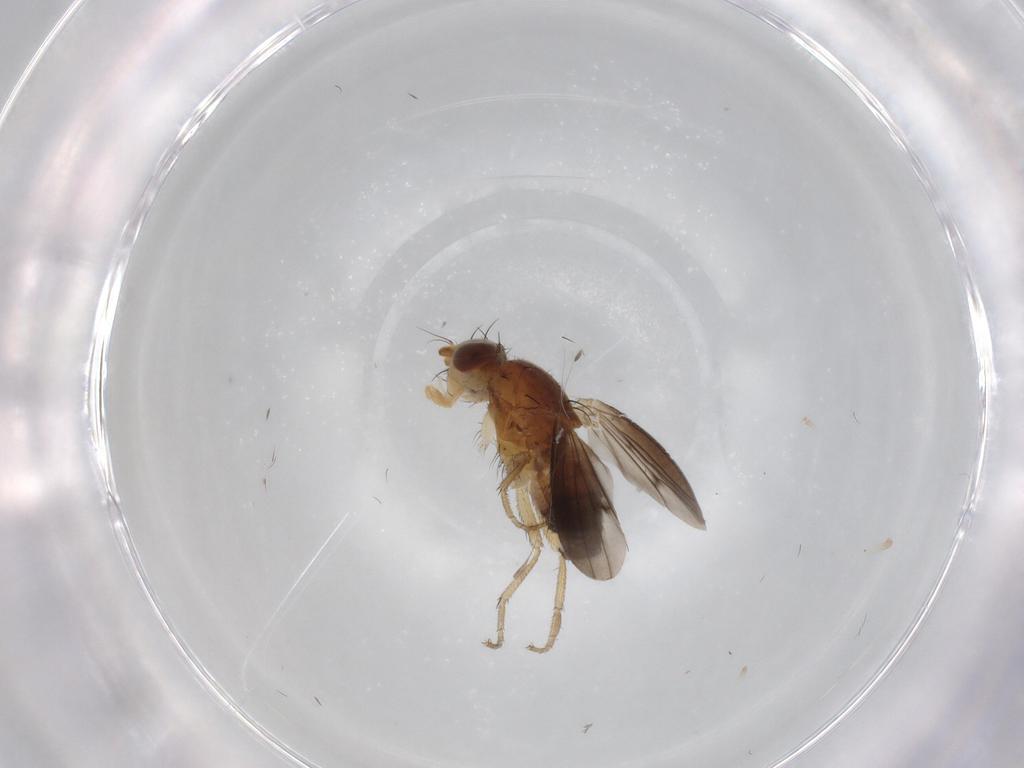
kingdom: Animalia
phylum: Arthropoda
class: Insecta
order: Diptera
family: Heleomyzidae
